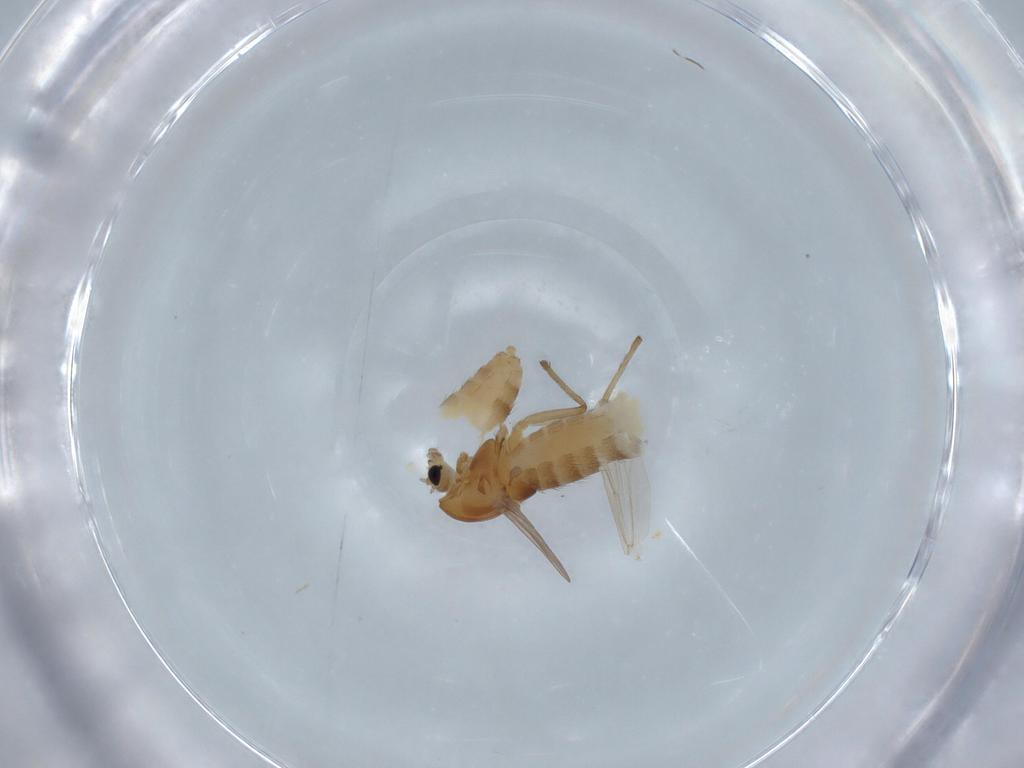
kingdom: Animalia
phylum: Arthropoda
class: Insecta
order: Diptera
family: Chironomidae
